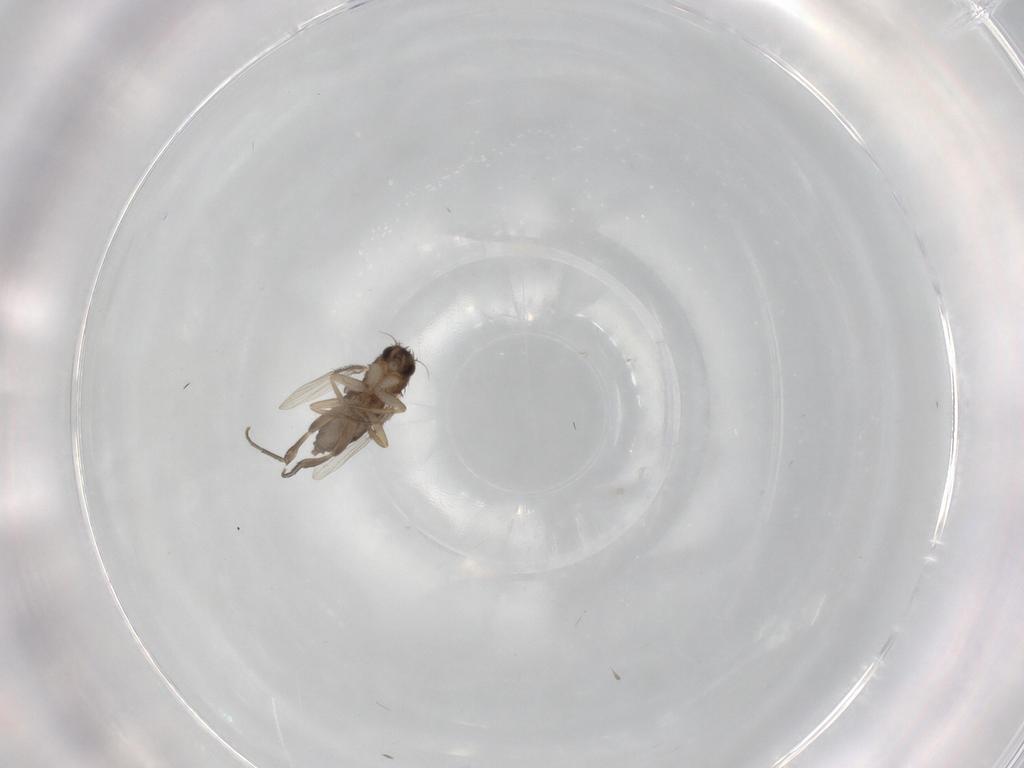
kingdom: Animalia
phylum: Arthropoda
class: Insecta
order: Diptera
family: Phoridae
